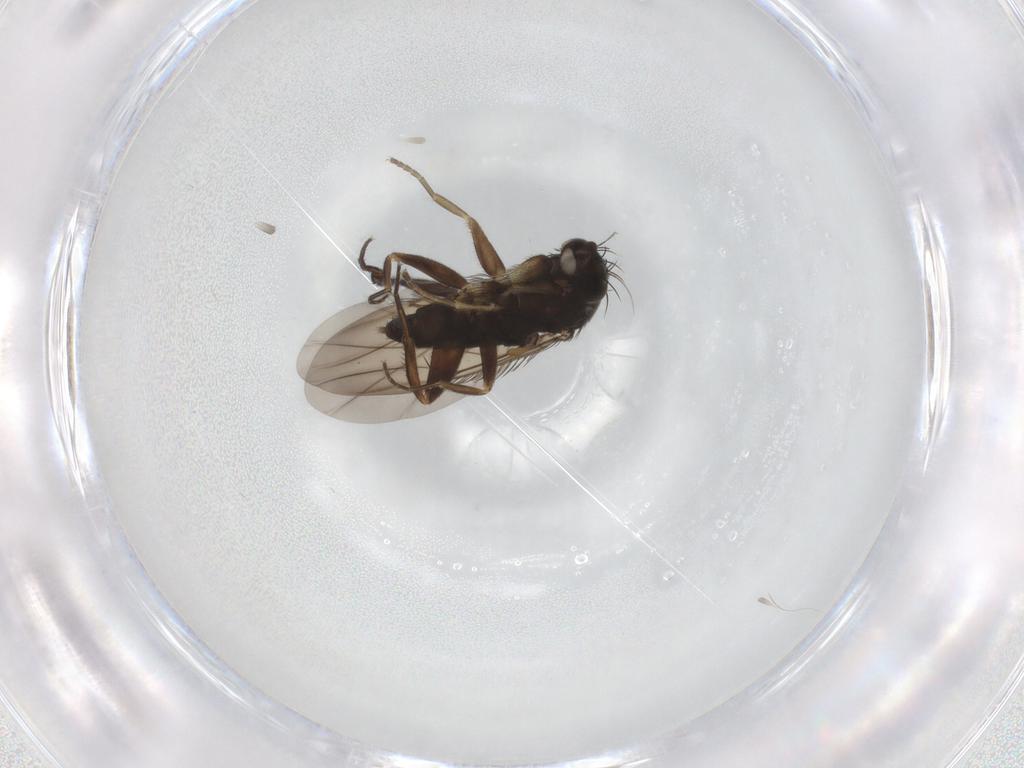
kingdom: Animalia
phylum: Arthropoda
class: Insecta
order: Diptera
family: Phoridae
